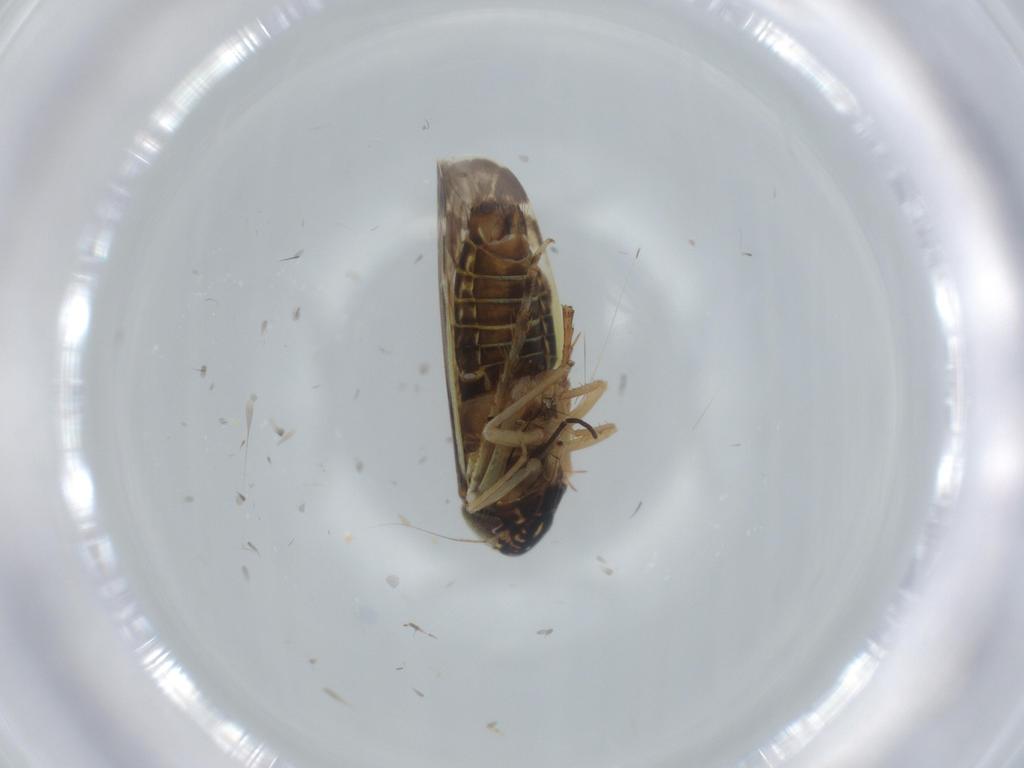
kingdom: Animalia
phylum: Arthropoda
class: Insecta
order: Hemiptera
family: Cicadellidae
